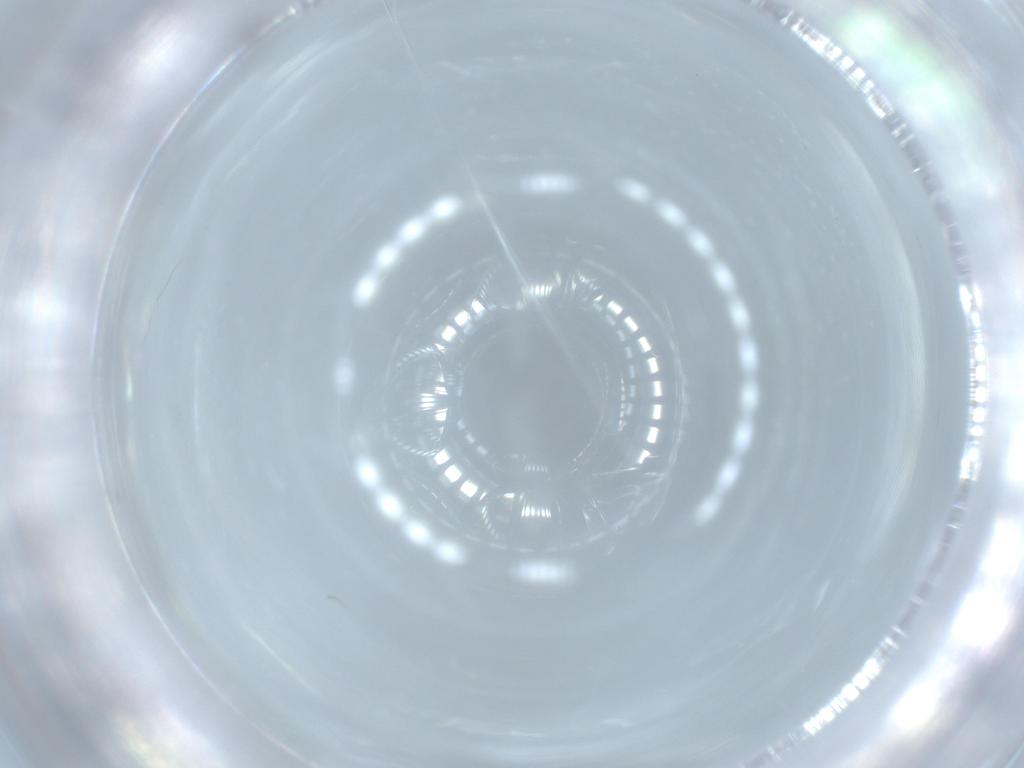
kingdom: Animalia
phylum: Arthropoda
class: Insecta
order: Diptera
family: Cecidomyiidae
